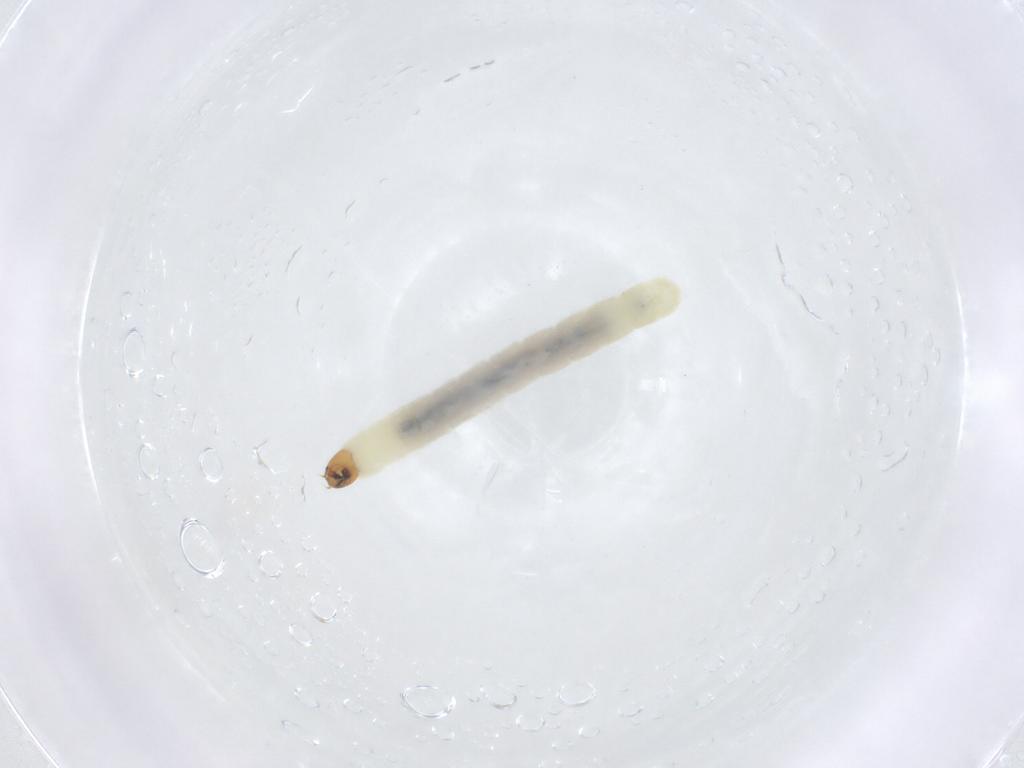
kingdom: Animalia
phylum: Arthropoda
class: Insecta
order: Diptera
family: Chironomidae
